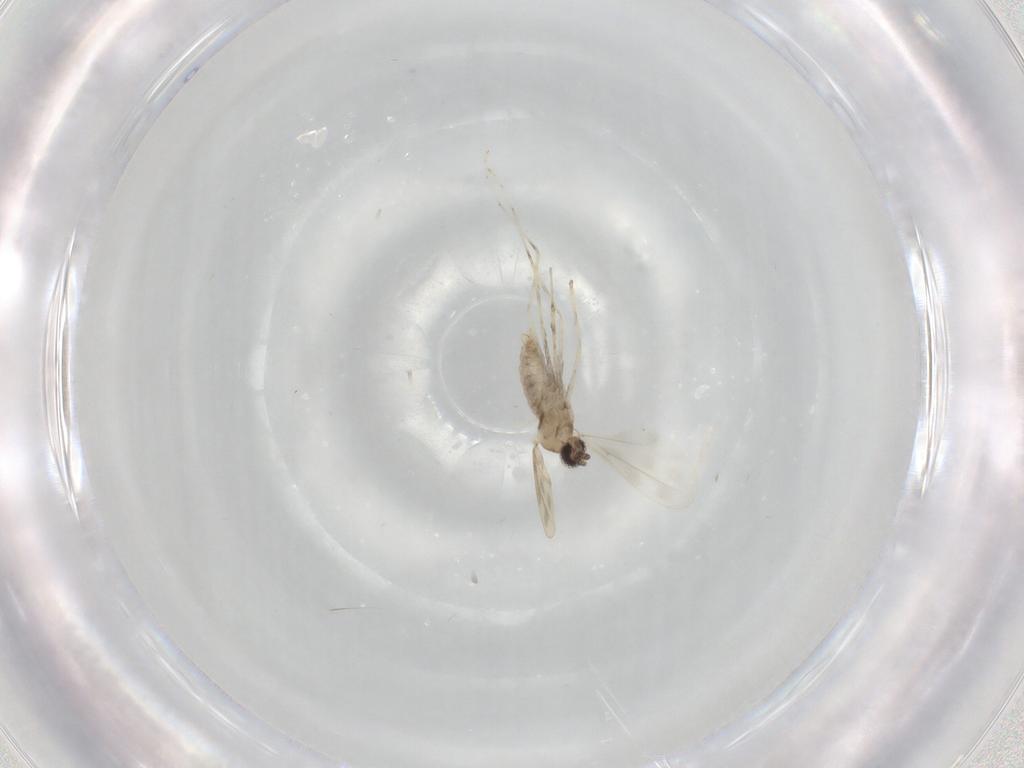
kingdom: Animalia
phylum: Arthropoda
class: Insecta
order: Diptera
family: Cecidomyiidae
